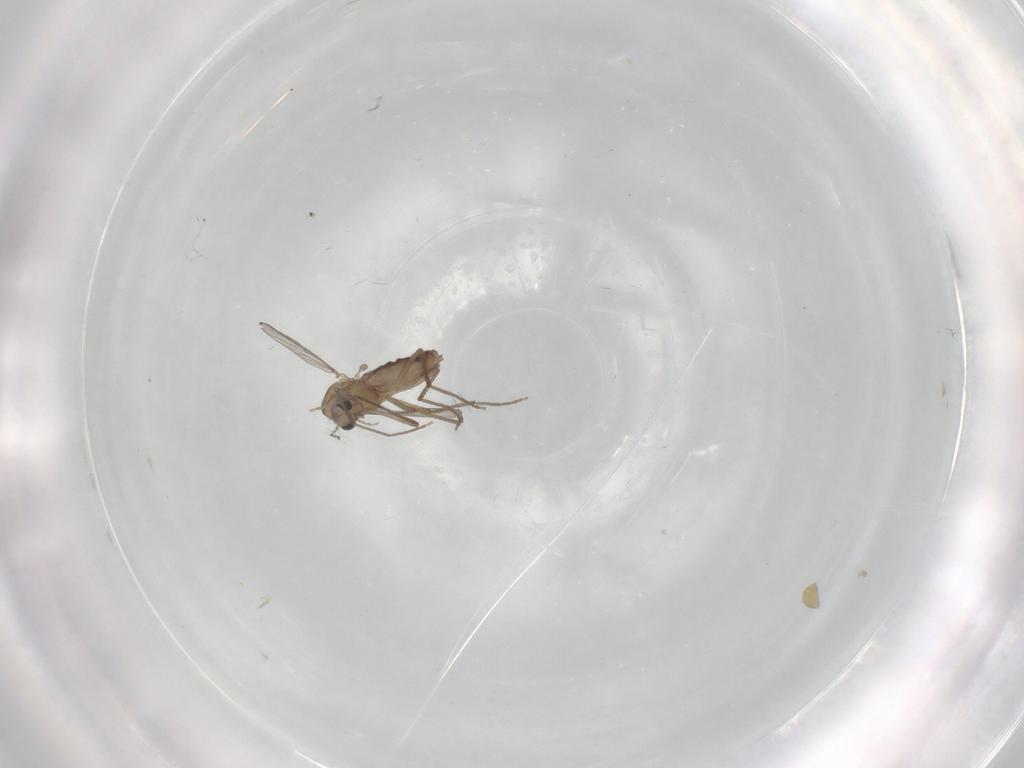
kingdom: Animalia
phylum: Arthropoda
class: Insecta
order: Diptera
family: Chironomidae
